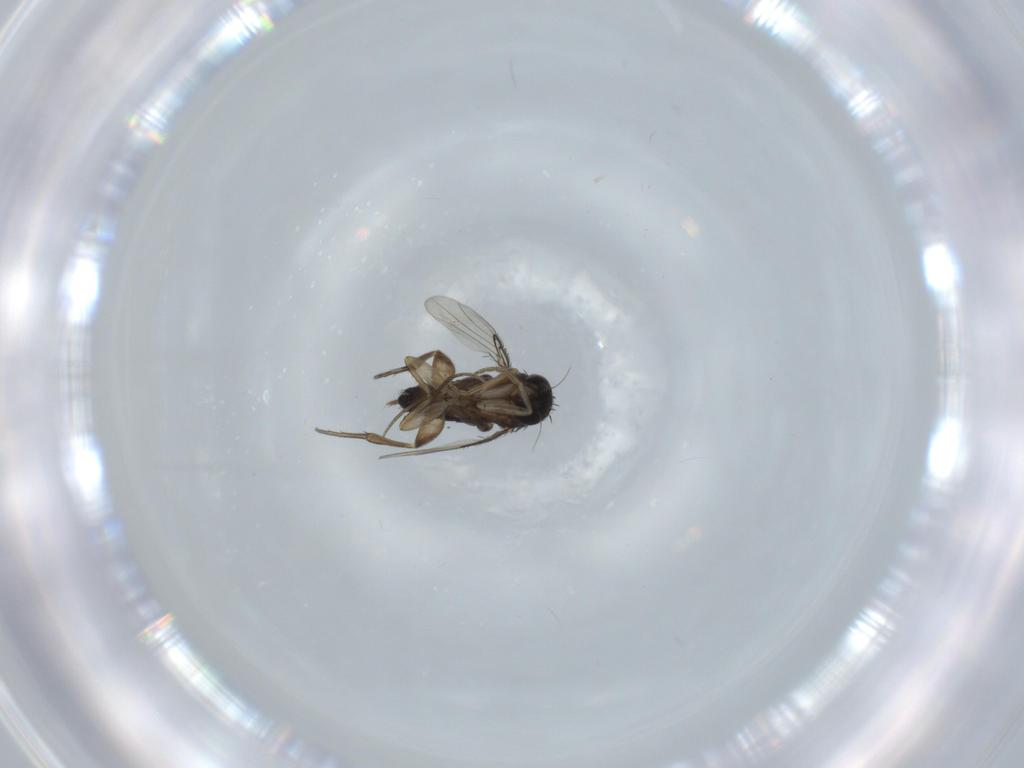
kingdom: Animalia
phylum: Arthropoda
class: Insecta
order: Diptera
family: Phoridae
